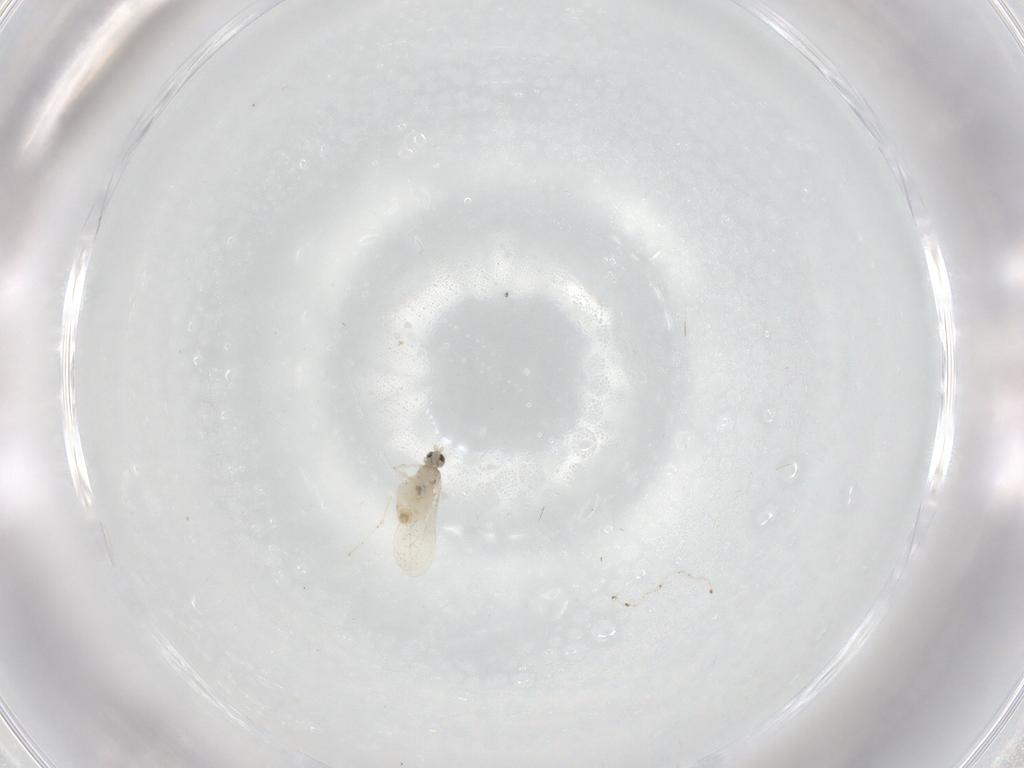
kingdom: Animalia
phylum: Arthropoda
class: Insecta
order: Diptera
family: Cecidomyiidae
